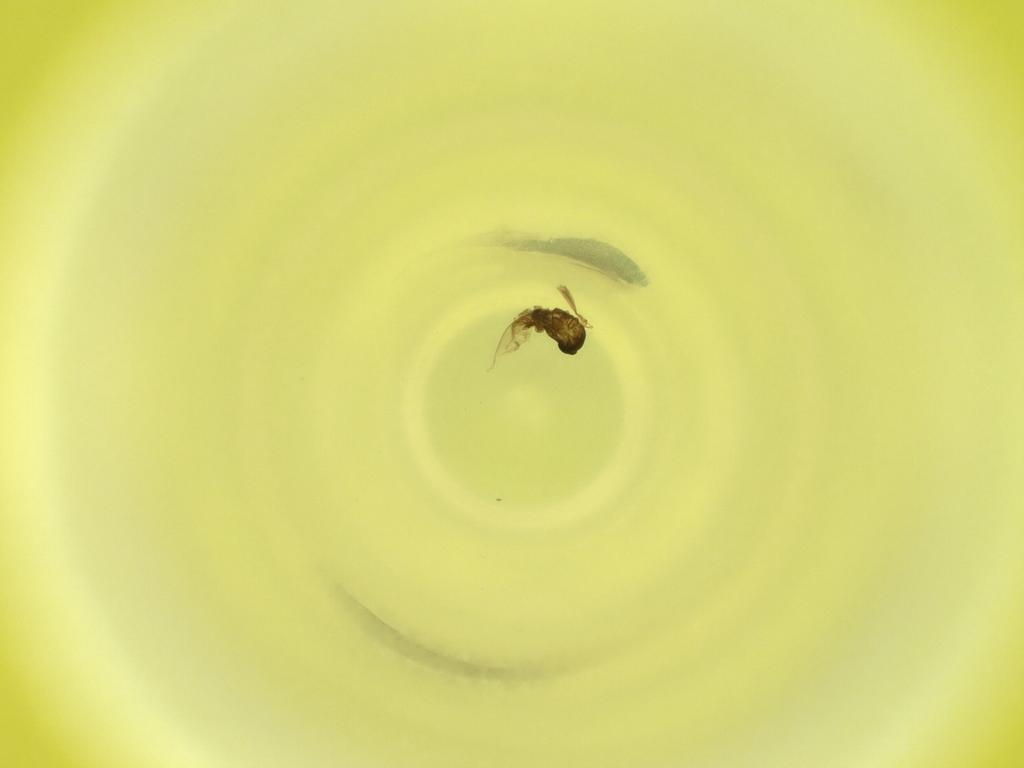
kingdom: Animalia
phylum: Arthropoda
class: Insecta
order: Diptera
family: Cecidomyiidae
